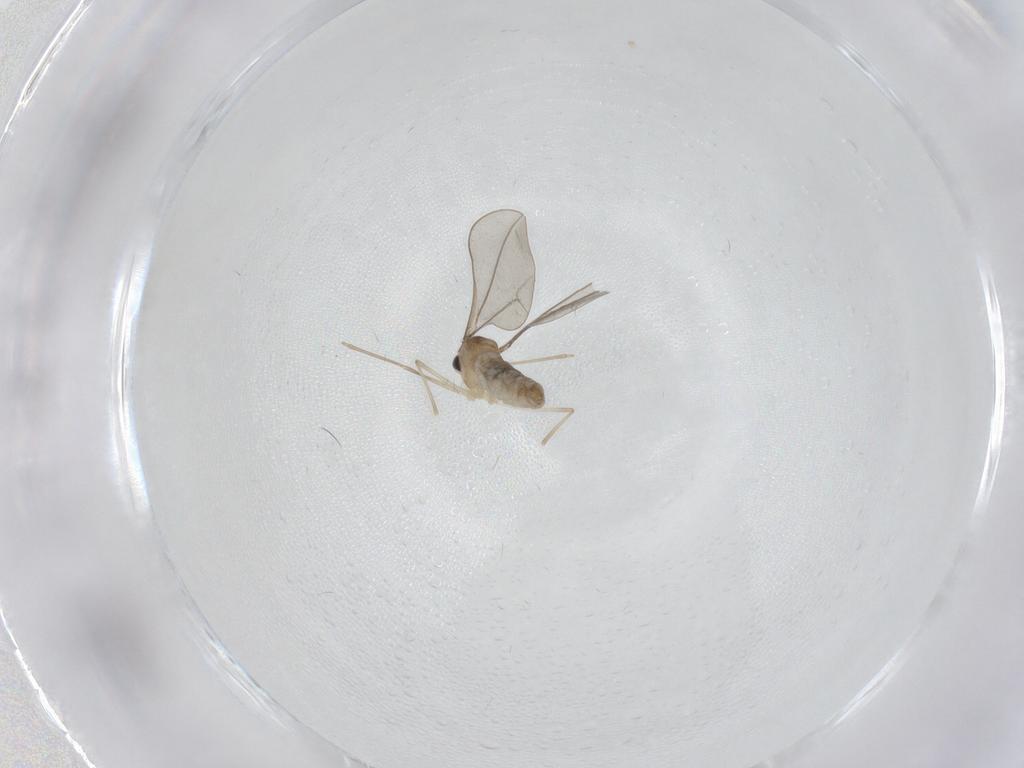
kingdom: Animalia
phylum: Arthropoda
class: Insecta
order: Diptera
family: Cecidomyiidae
